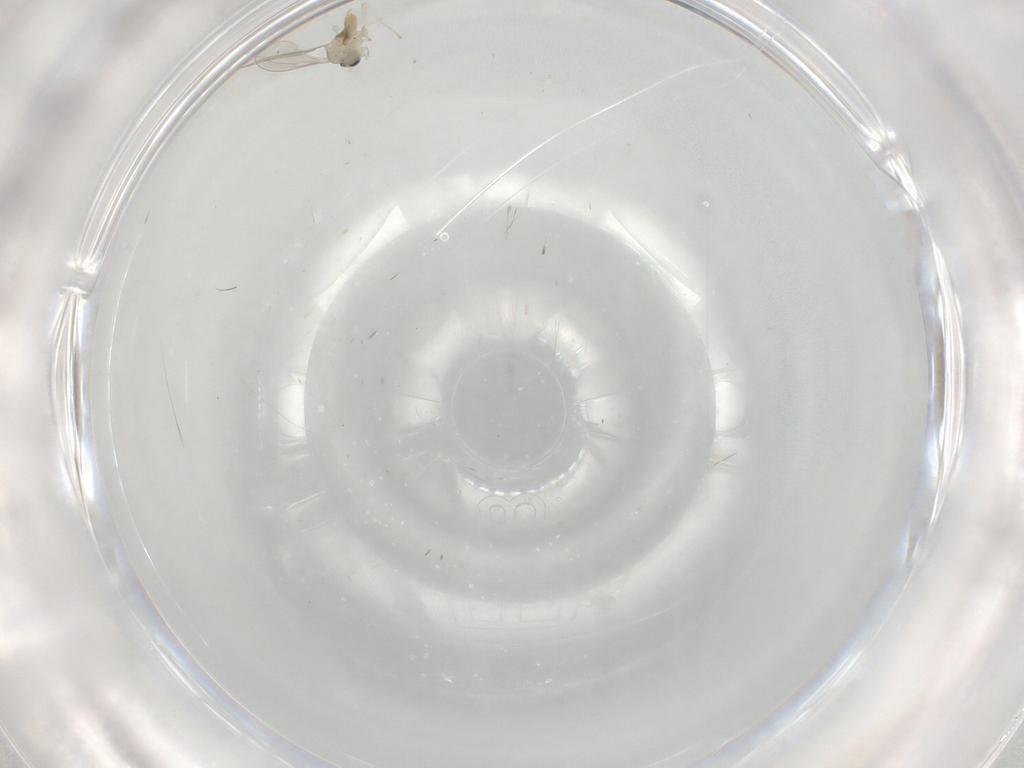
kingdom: Animalia
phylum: Arthropoda
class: Insecta
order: Diptera
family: Cecidomyiidae
